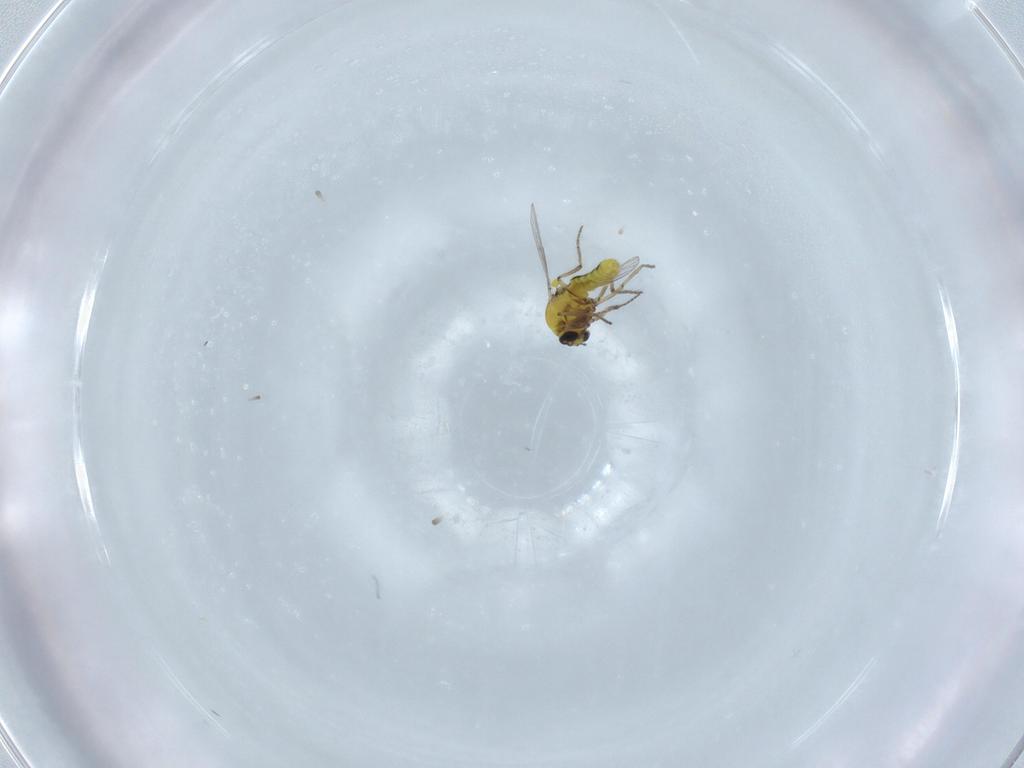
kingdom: Animalia
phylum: Arthropoda
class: Insecta
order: Diptera
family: Ceratopogonidae
